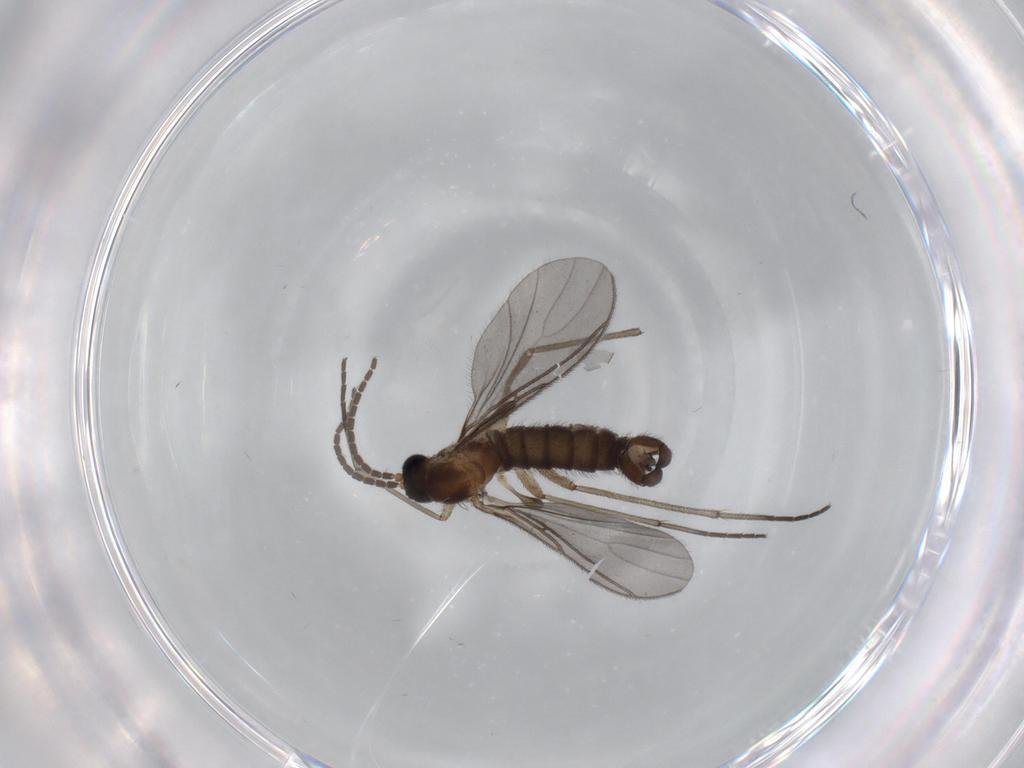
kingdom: Animalia
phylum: Arthropoda
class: Insecta
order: Diptera
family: Sciaridae
